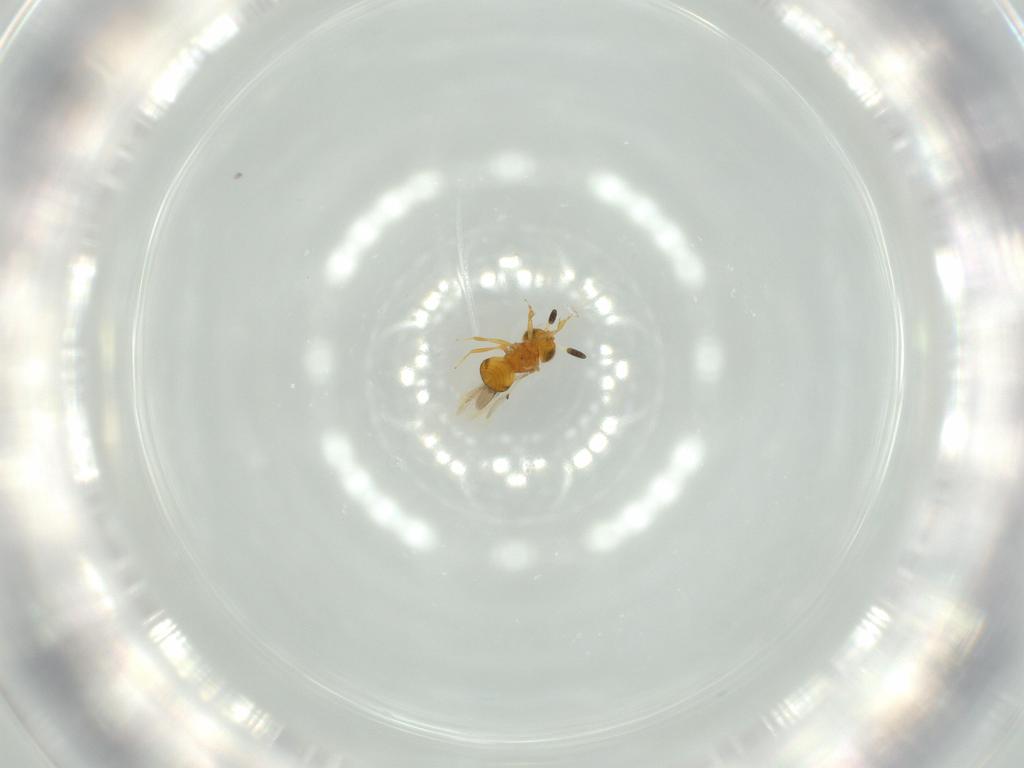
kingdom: Animalia
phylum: Arthropoda
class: Insecta
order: Hymenoptera
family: Scelionidae
